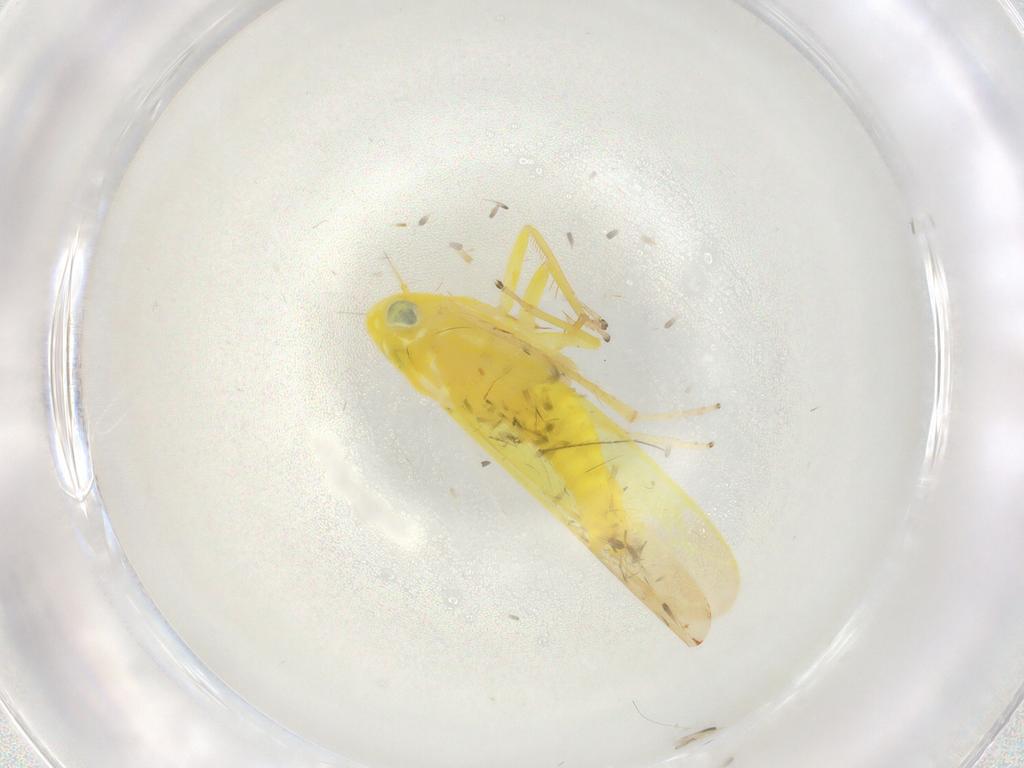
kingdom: Animalia
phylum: Arthropoda
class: Insecta
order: Hemiptera
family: Cicadellidae
